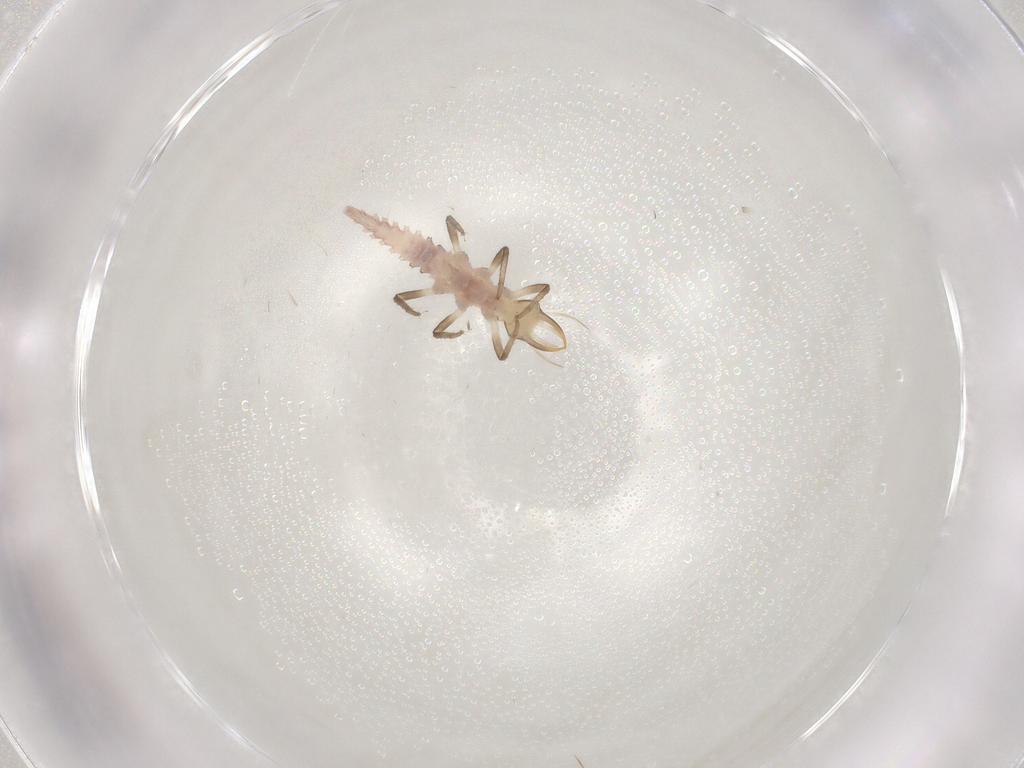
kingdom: Animalia
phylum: Arthropoda
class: Insecta
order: Neuroptera
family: Chrysopidae
